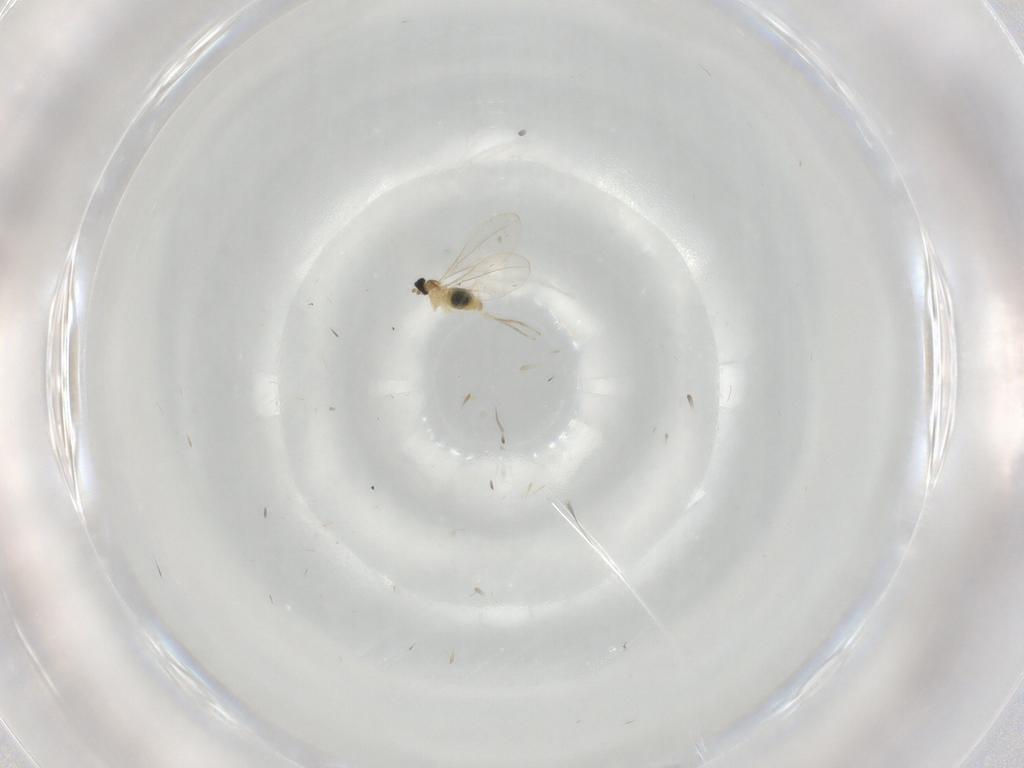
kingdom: Animalia
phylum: Arthropoda
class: Insecta
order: Diptera
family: Cecidomyiidae
